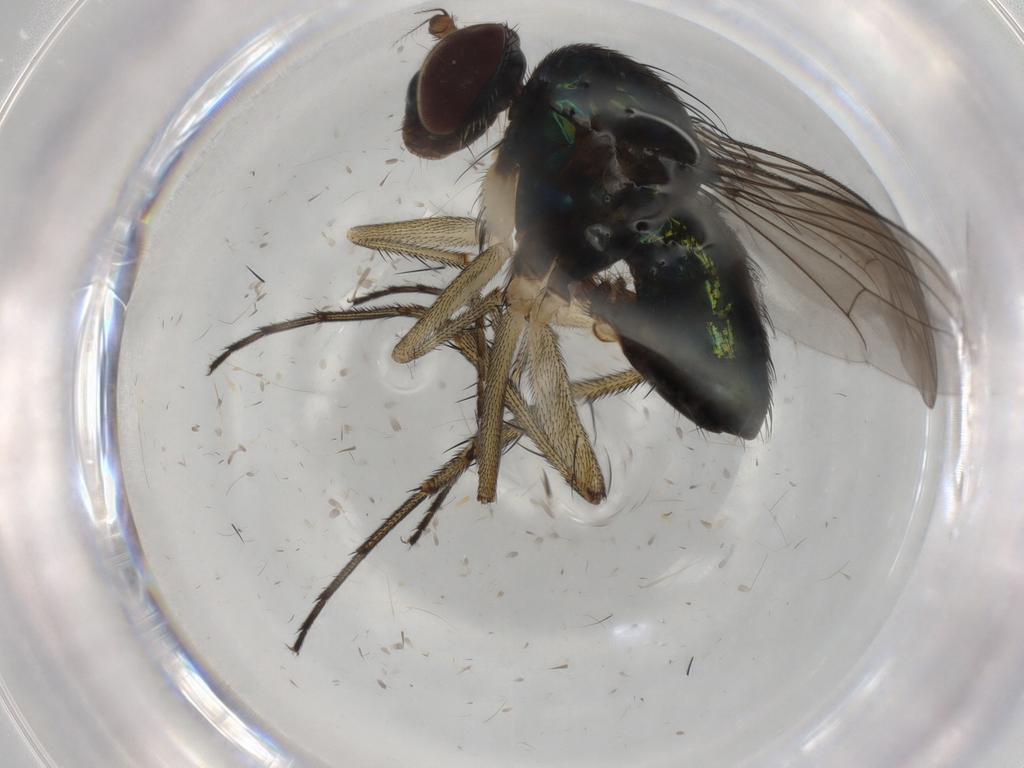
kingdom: Animalia
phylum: Arthropoda
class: Insecta
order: Diptera
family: Psychodidae
